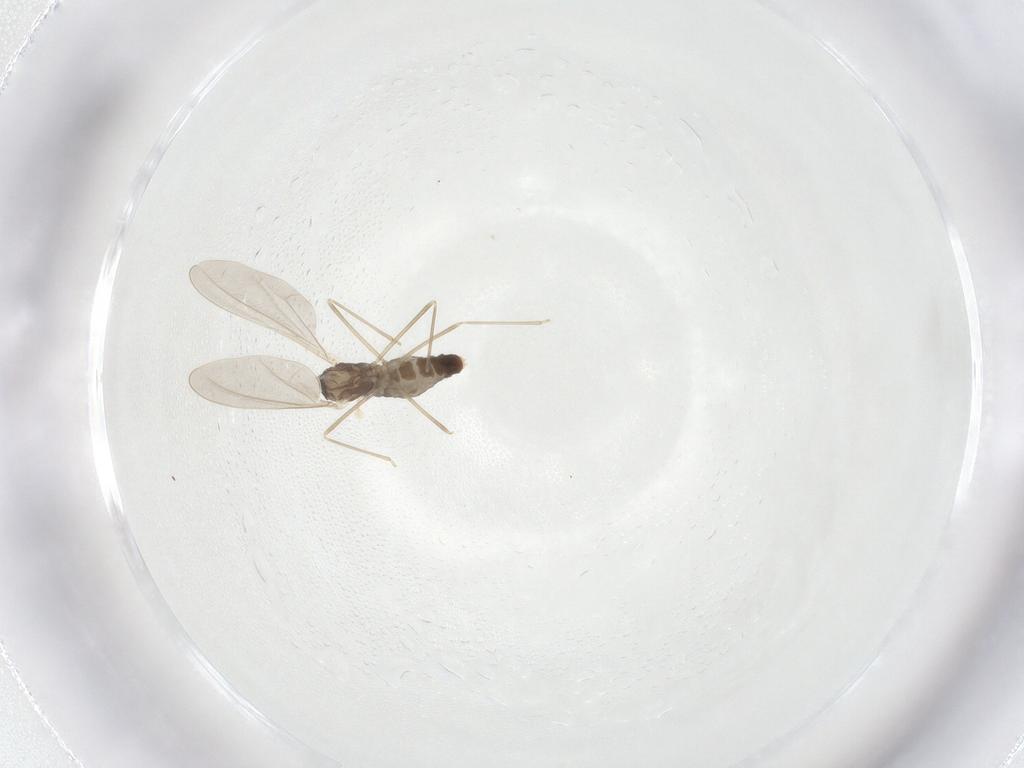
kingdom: Animalia
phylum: Arthropoda
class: Insecta
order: Diptera
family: Cecidomyiidae
